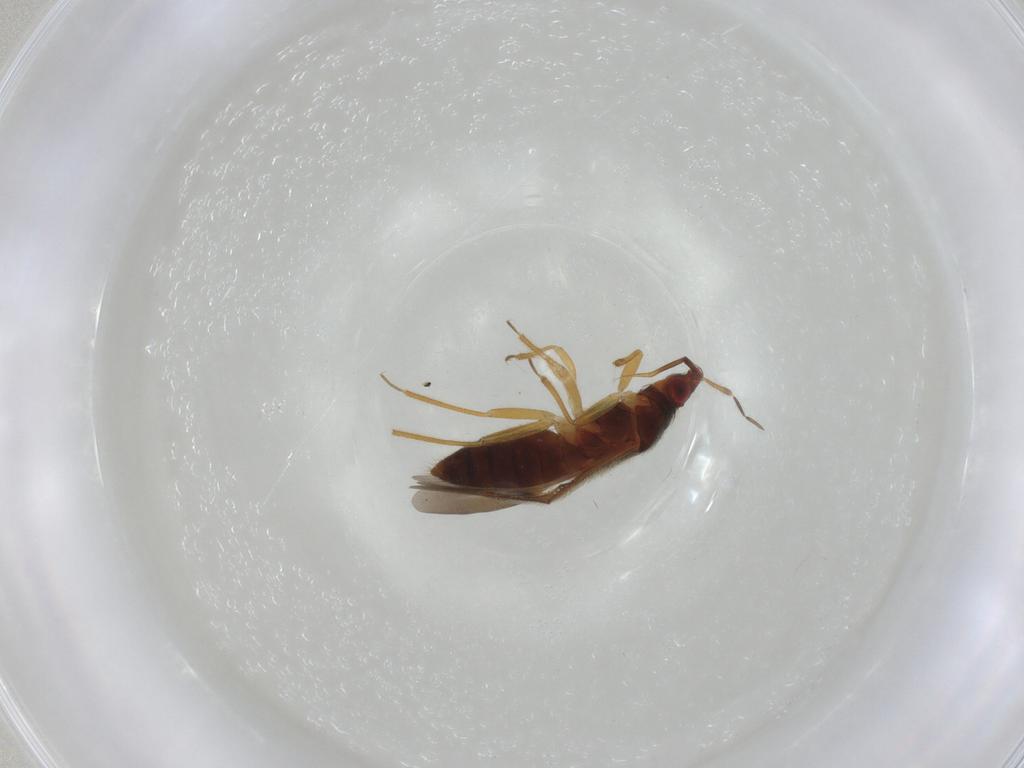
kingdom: Animalia
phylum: Arthropoda
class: Insecta
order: Hemiptera
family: Anthocoridae
